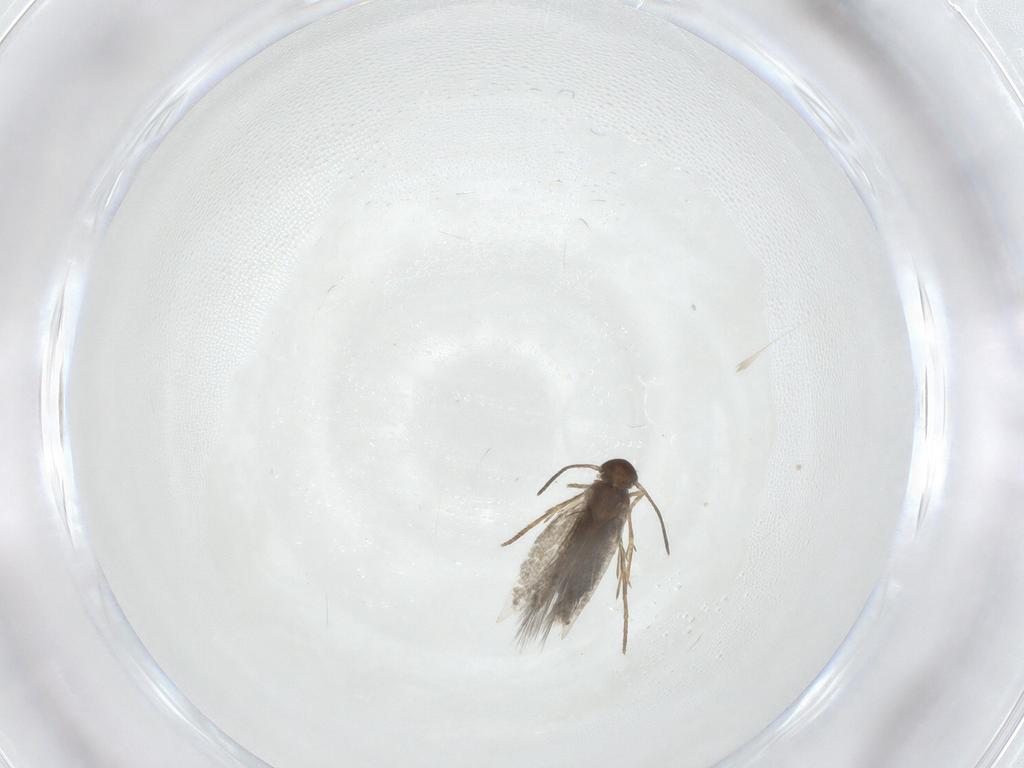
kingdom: Animalia
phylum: Arthropoda
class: Insecta
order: Lepidoptera
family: Heliozelidae
